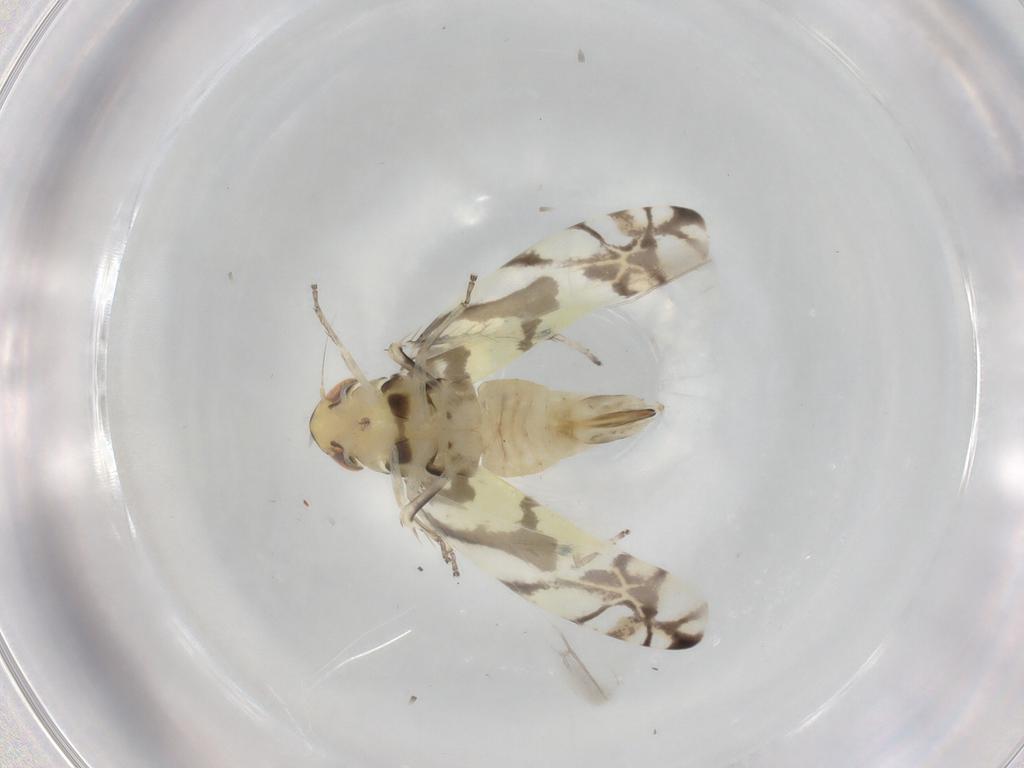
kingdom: Animalia
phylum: Arthropoda
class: Insecta
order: Hemiptera
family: Cicadellidae
